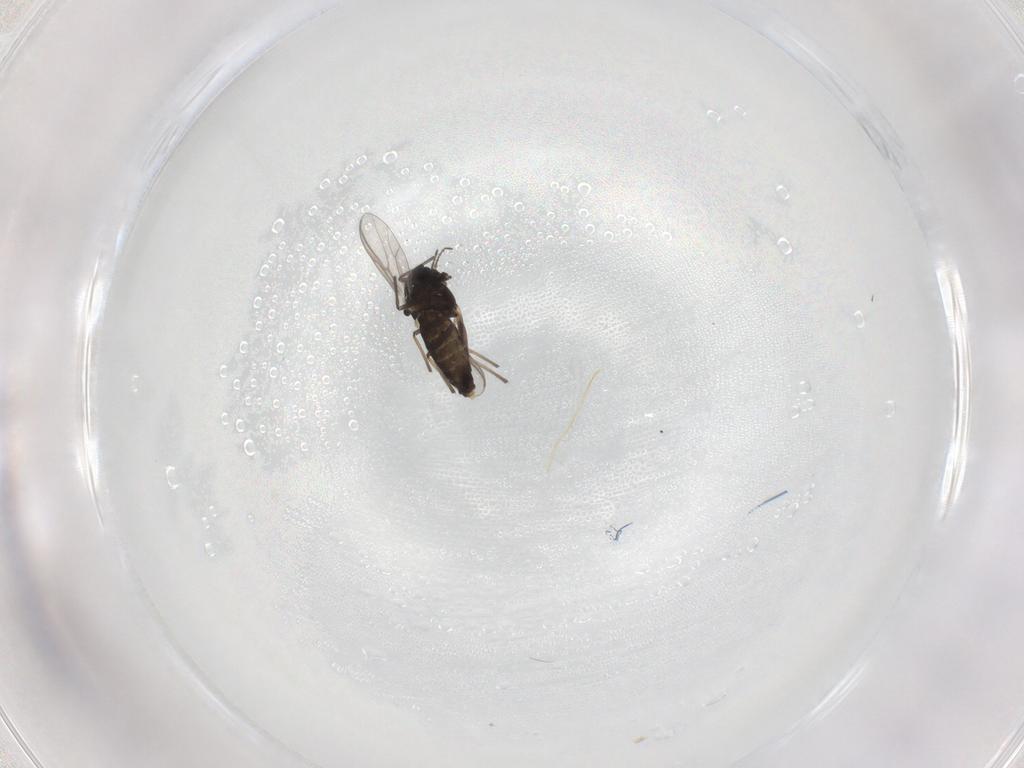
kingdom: Animalia
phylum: Arthropoda
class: Insecta
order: Diptera
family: Chironomidae
